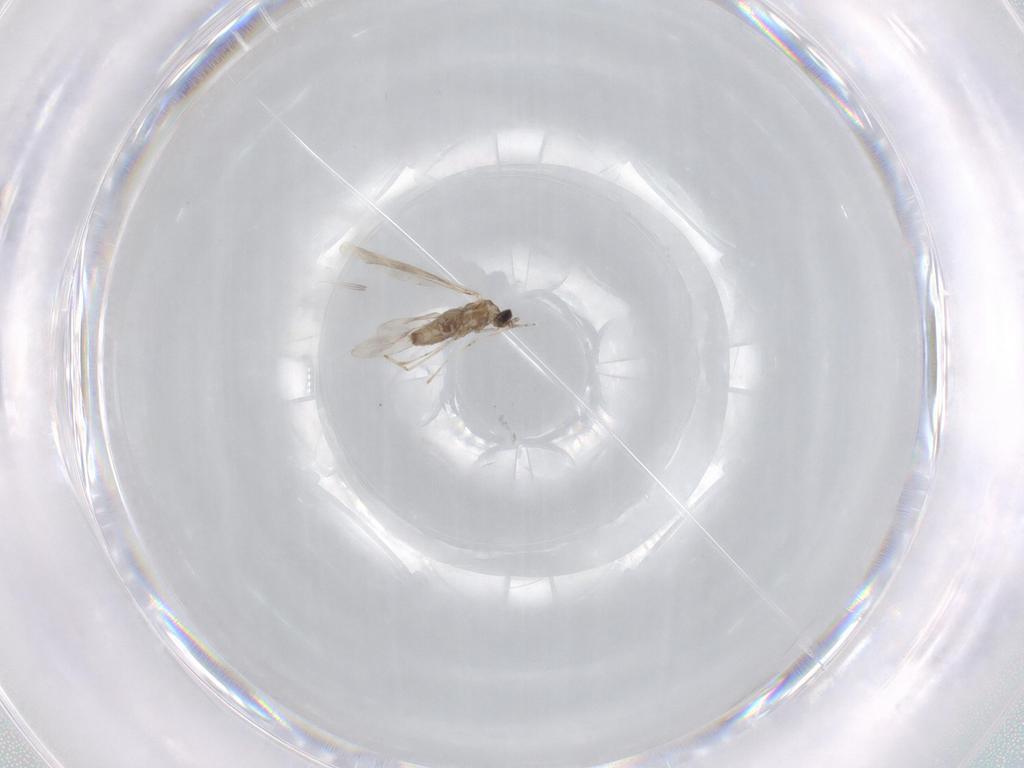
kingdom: Animalia
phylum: Arthropoda
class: Insecta
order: Diptera
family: Cecidomyiidae
